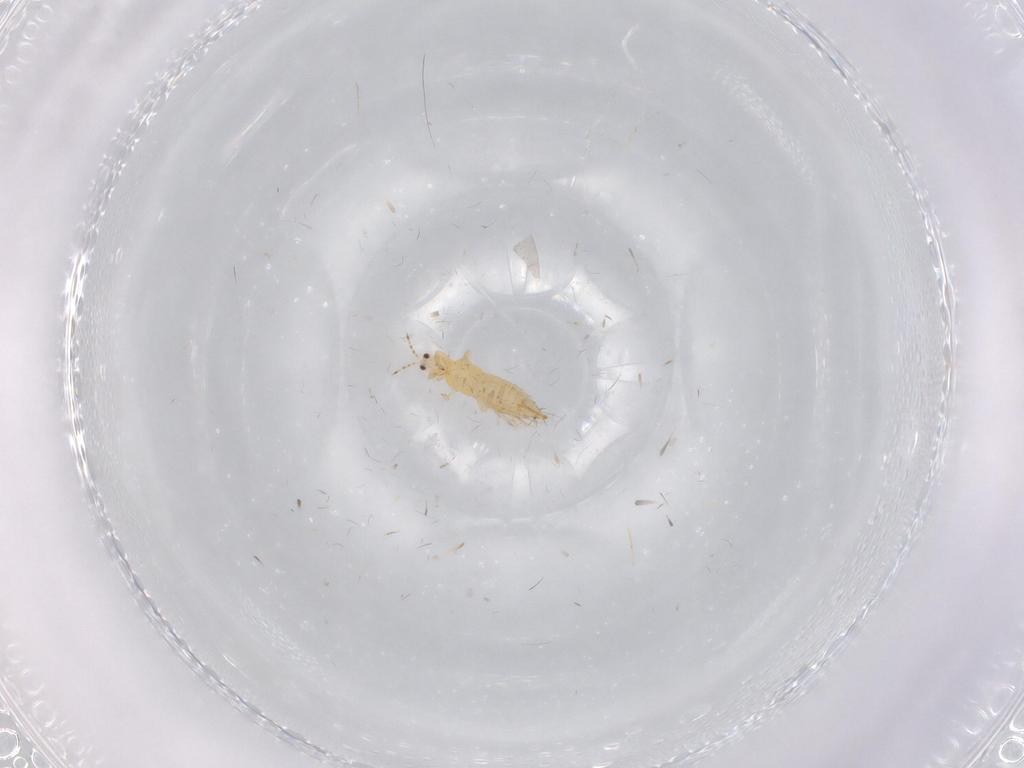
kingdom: Animalia
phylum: Arthropoda
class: Insecta
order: Thysanoptera
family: Thripidae
